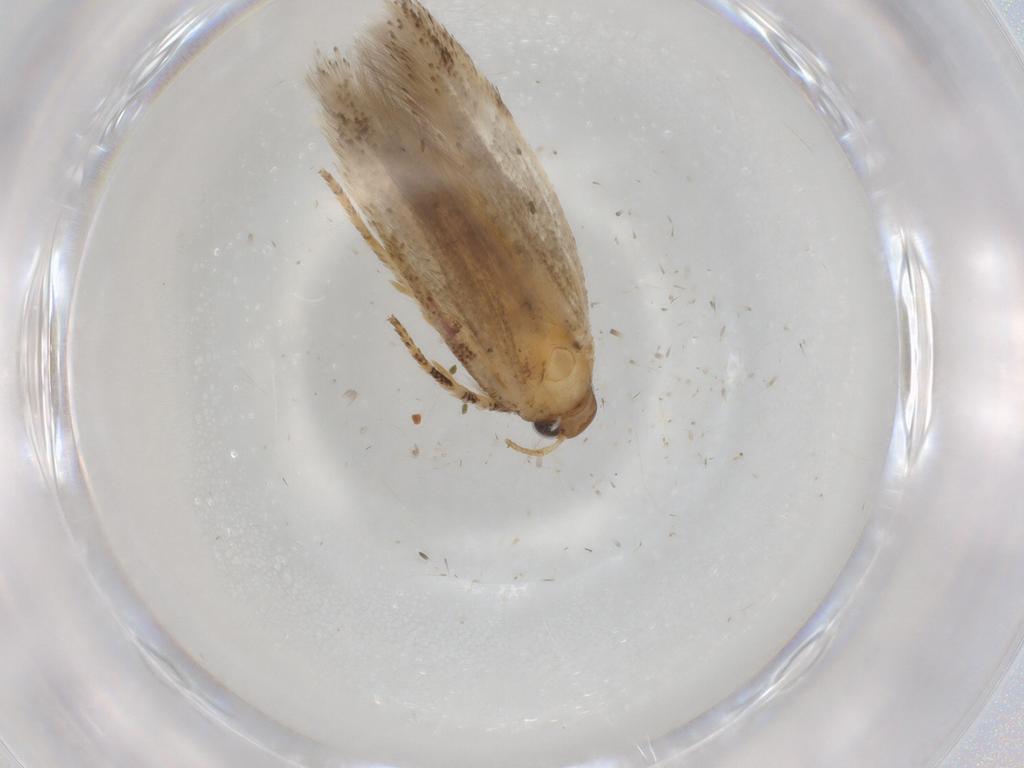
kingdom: Animalia
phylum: Arthropoda
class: Insecta
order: Lepidoptera
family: Gelechiidae
